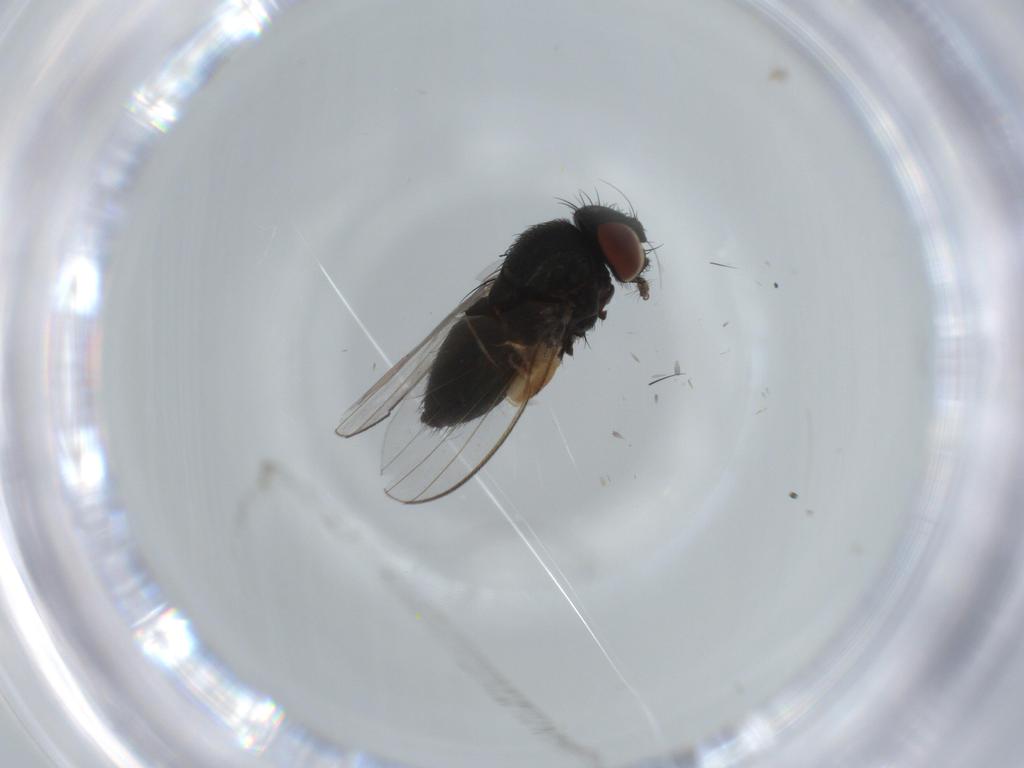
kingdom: Animalia
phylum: Arthropoda
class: Insecta
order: Diptera
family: Milichiidae
